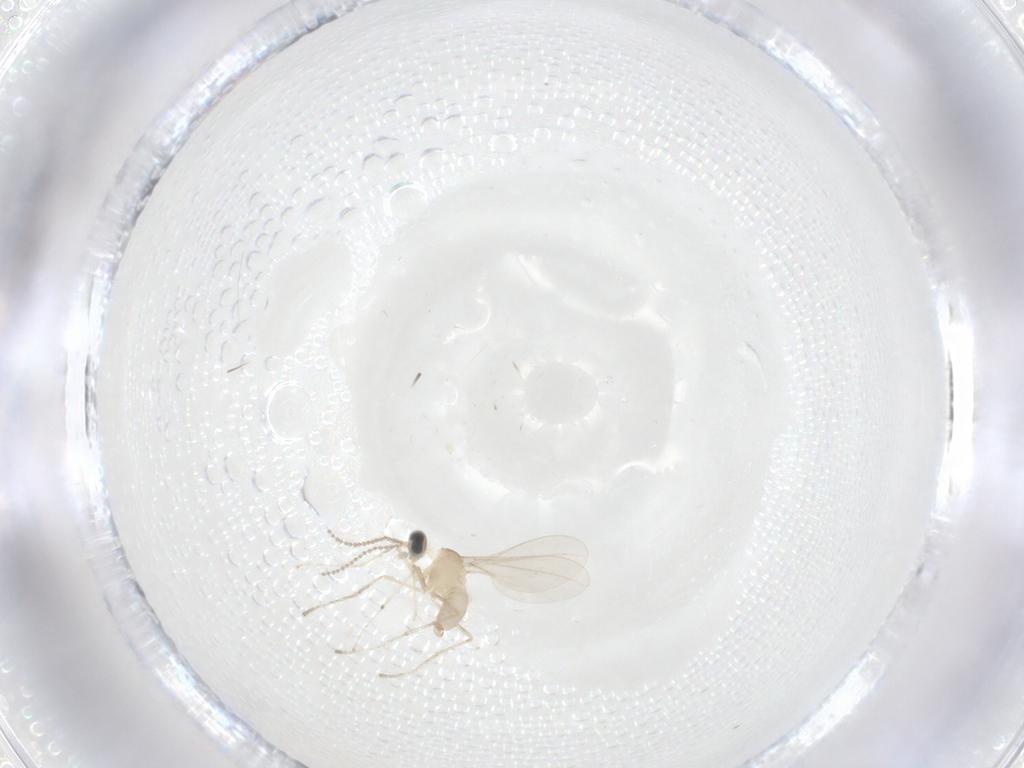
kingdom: Animalia
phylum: Arthropoda
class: Insecta
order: Diptera
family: Cecidomyiidae
